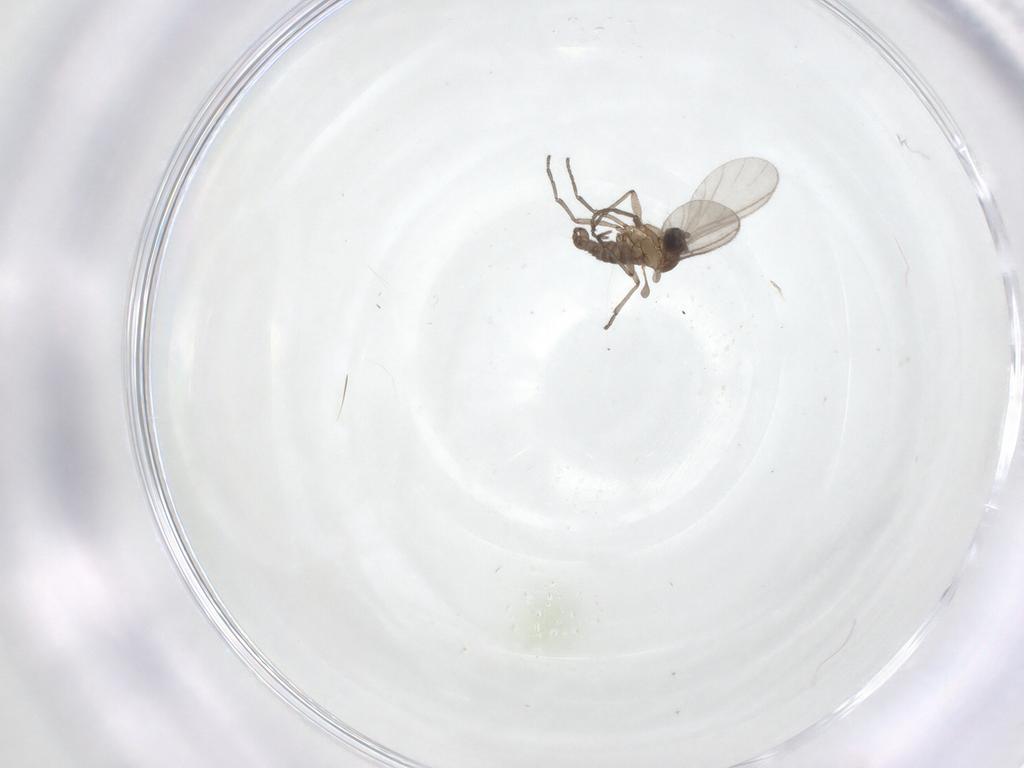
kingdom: Animalia
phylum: Arthropoda
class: Insecta
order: Diptera
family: Sciaridae
